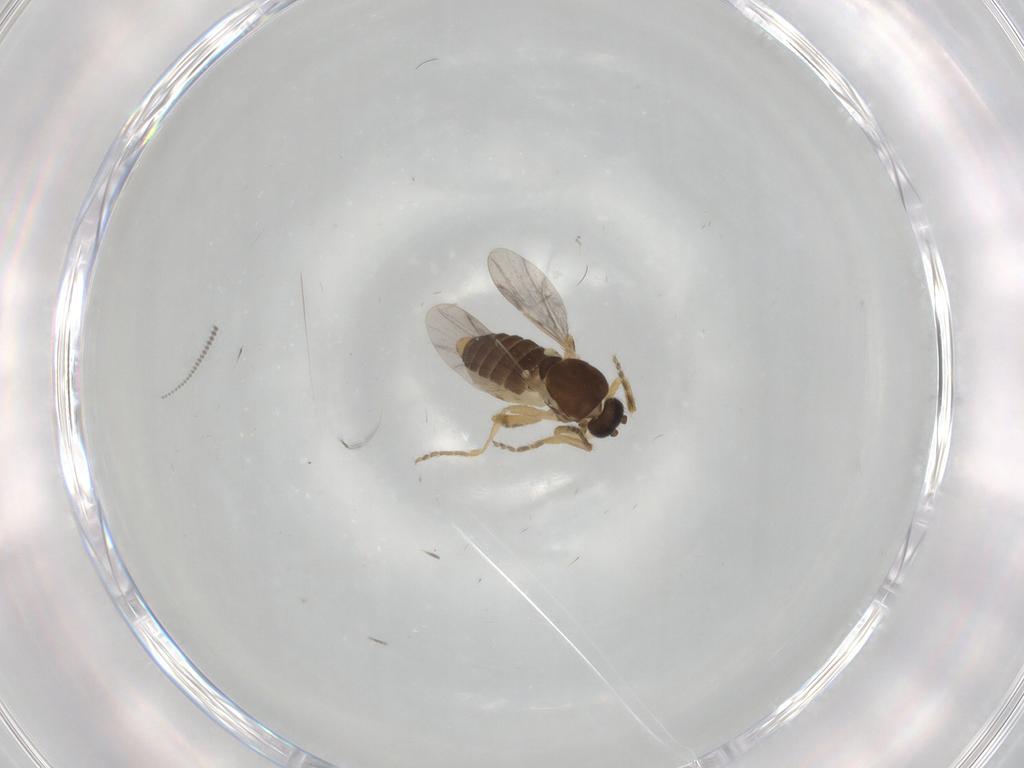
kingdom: Animalia
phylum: Arthropoda
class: Insecta
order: Diptera
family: Ceratopogonidae
